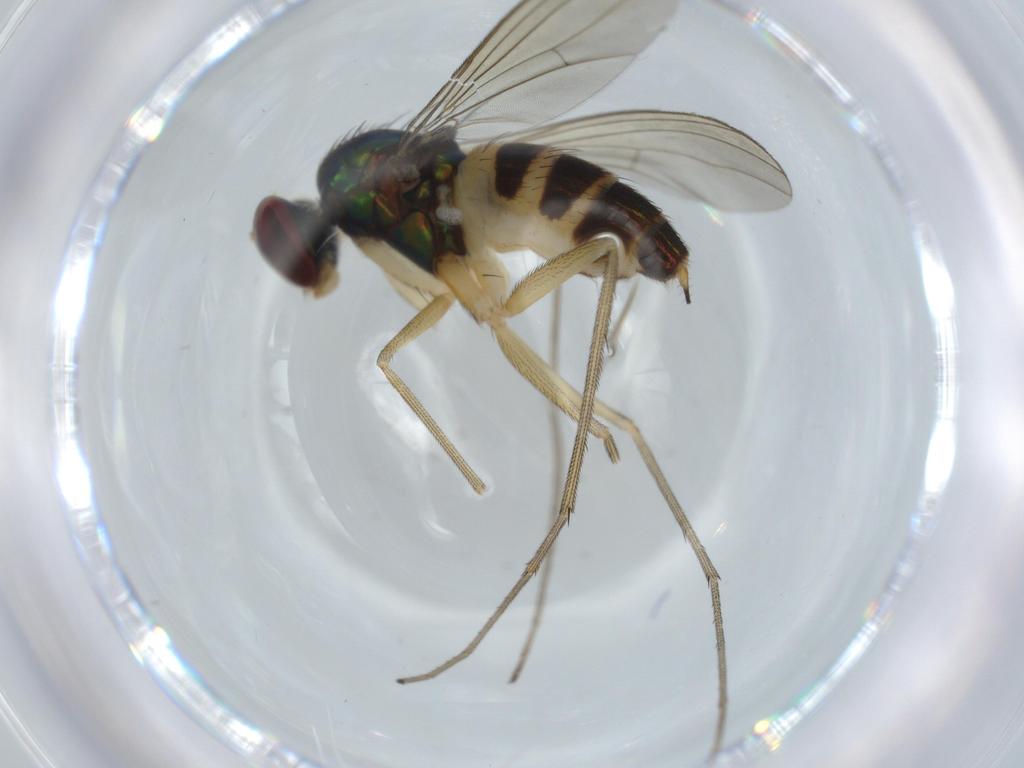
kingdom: Animalia
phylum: Arthropoda
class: Insecta
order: Diptera
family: Dolichopodidae
